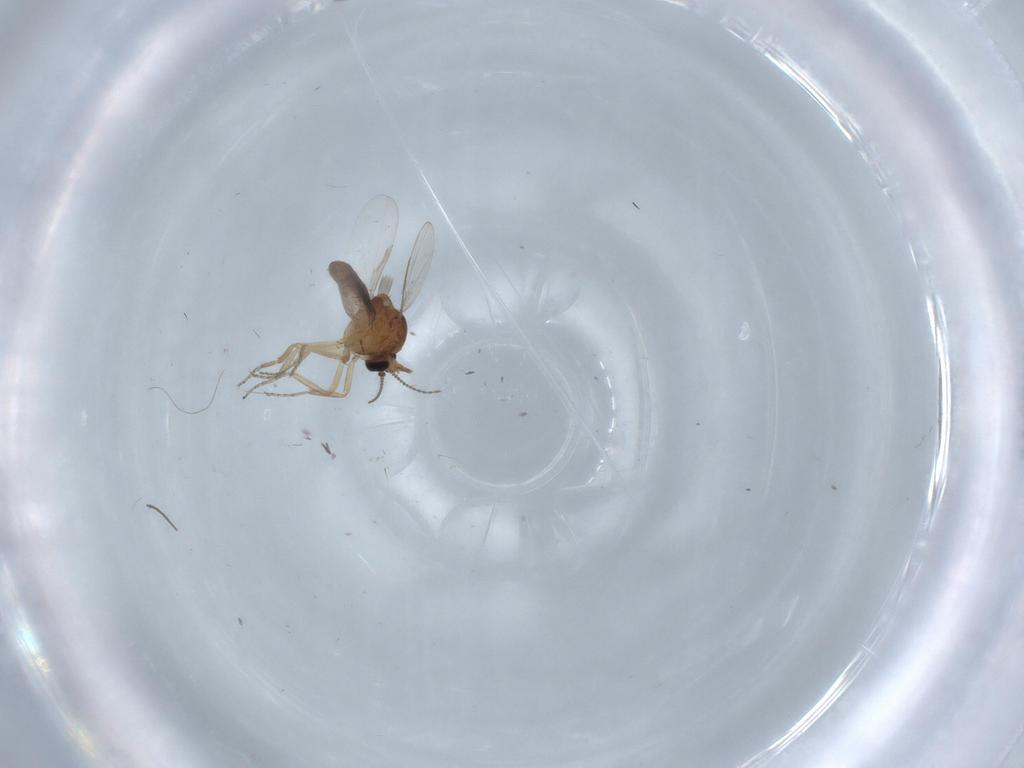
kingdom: Animalia
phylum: Arthropoda
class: Insecta
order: Diptera
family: Ceratopogonidae
